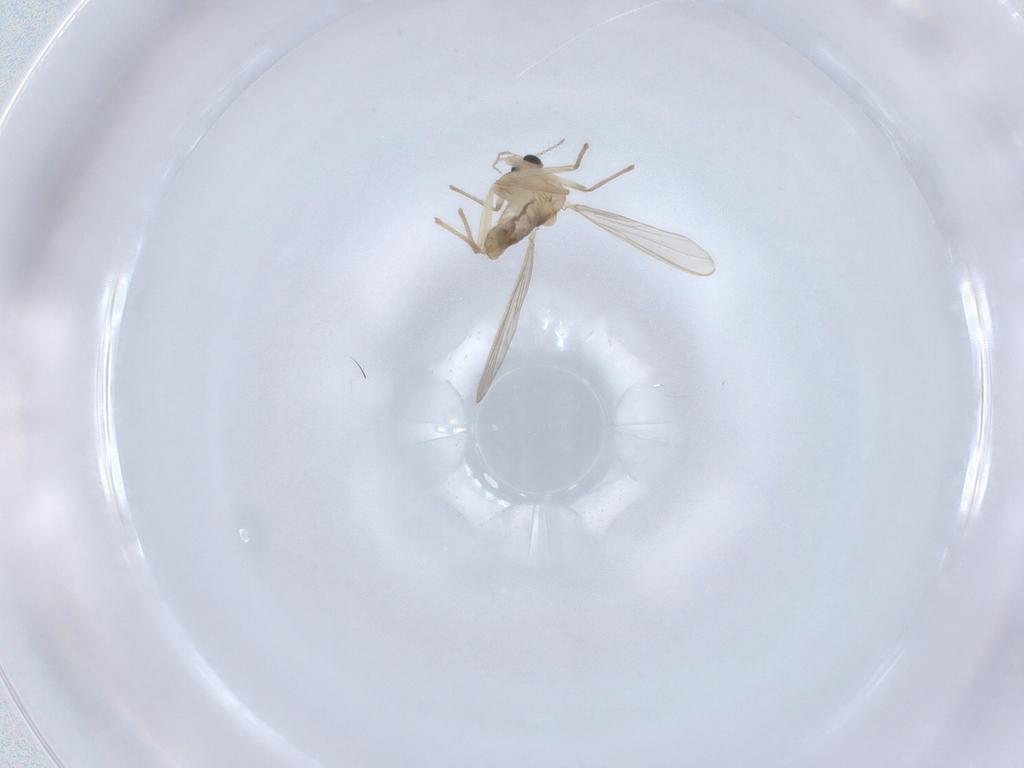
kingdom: Animalia
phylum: Arthropoda
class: Insecta
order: Diptera
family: Chironomidae
